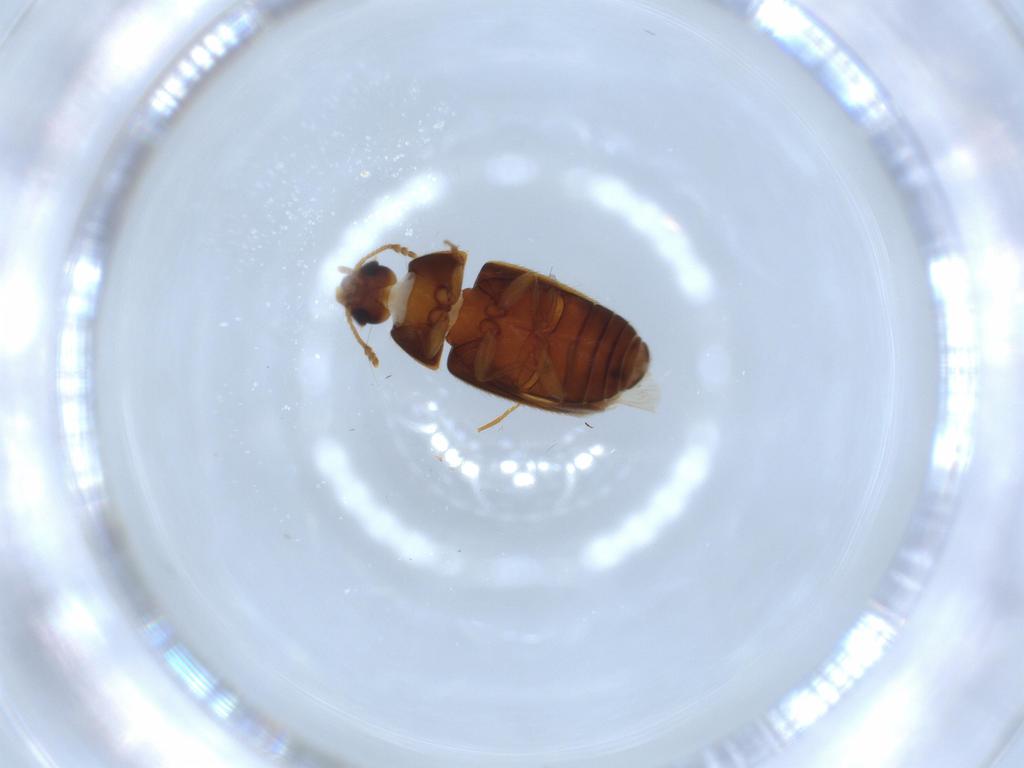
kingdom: Animalia
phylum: Arthropoda
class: Insecta
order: Coleoptera
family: Mycetophagidae
